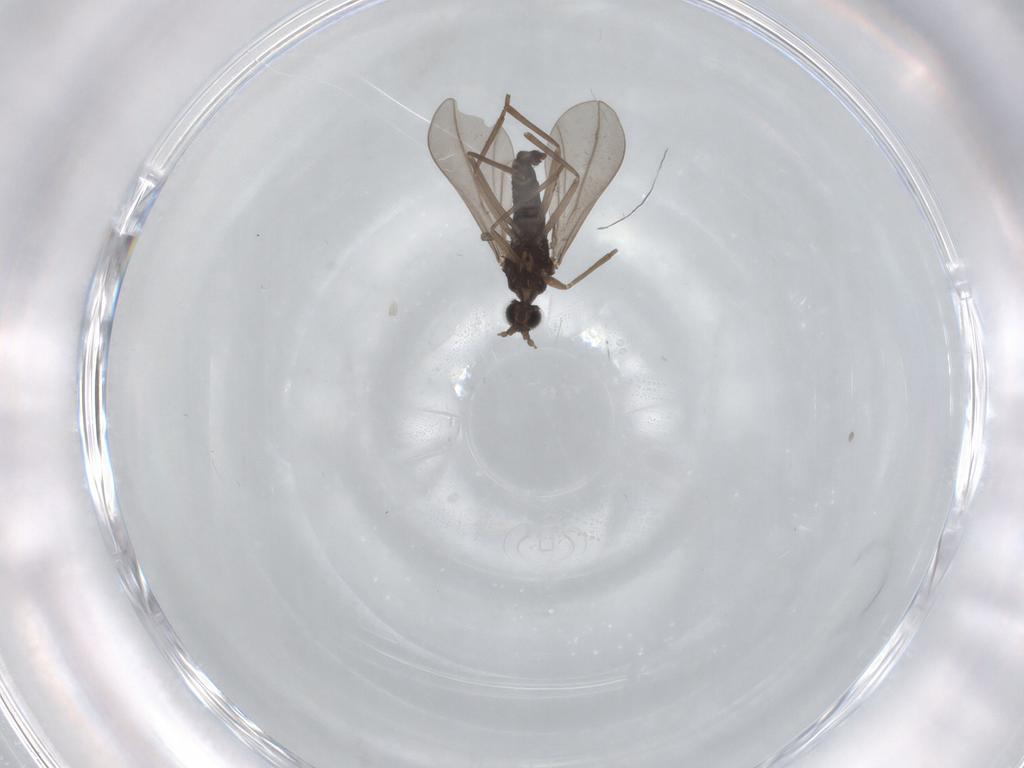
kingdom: Animalia
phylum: Arthropoda
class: Insecta
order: Diptera
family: Cecidomyiidae
